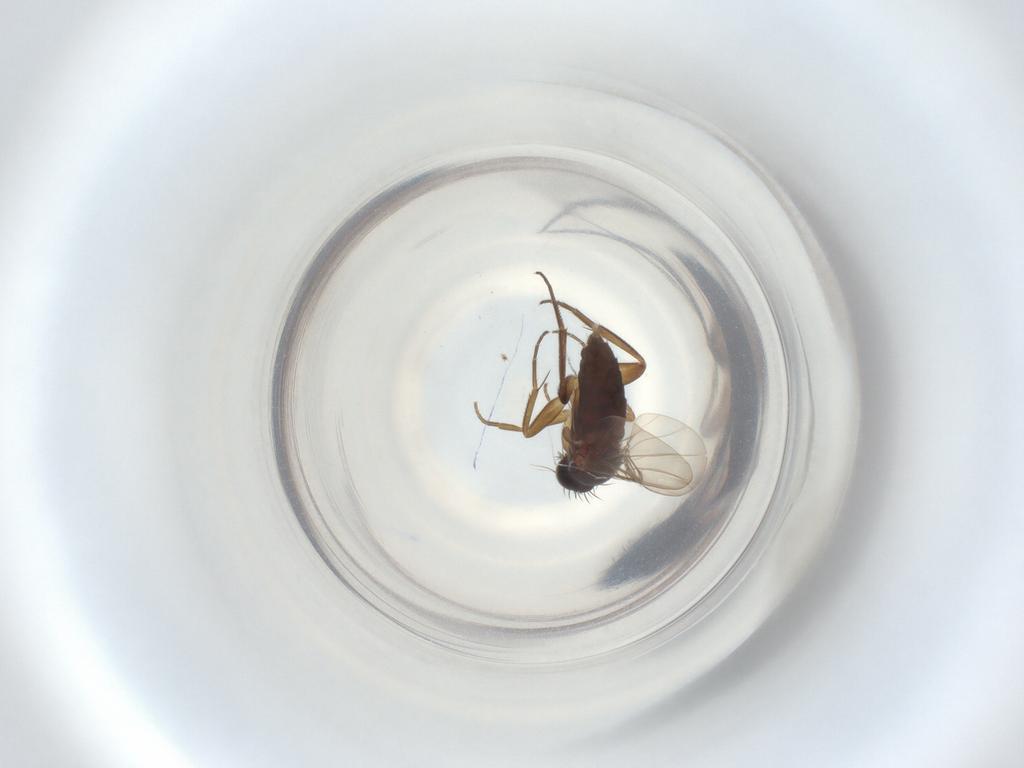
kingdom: Animalia
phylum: Arthropoda
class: Insecta
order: Diptera
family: Phoridae
